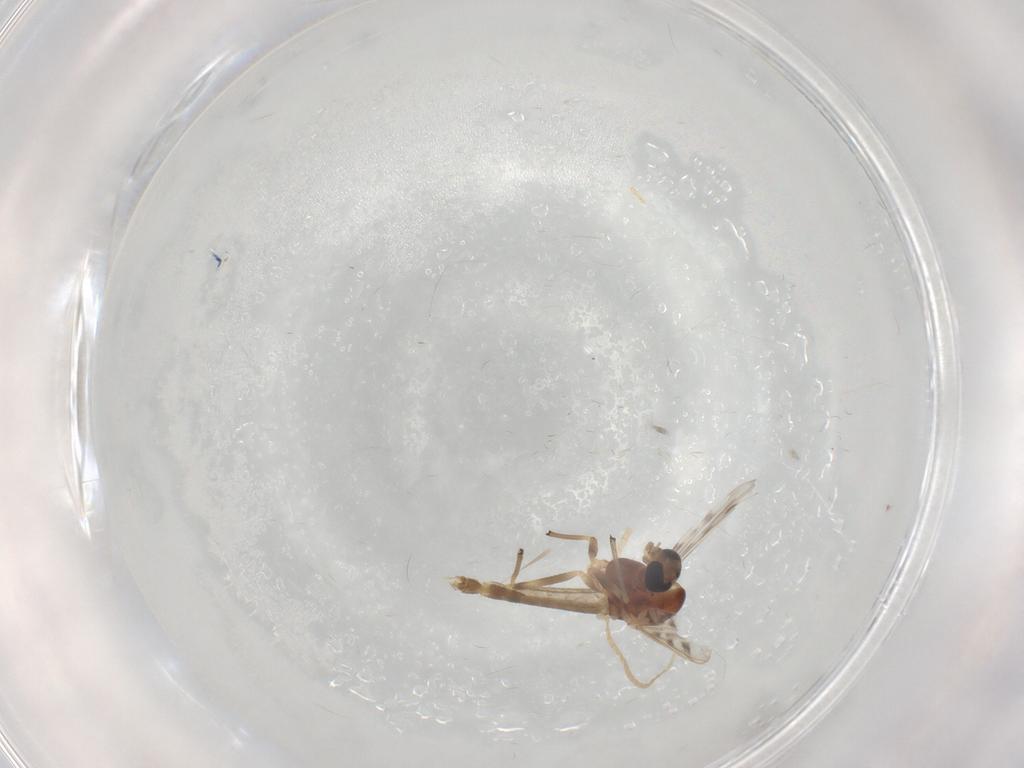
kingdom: Animalia
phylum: Arthropoda
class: Insecta
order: Diptera
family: Chironomidae
